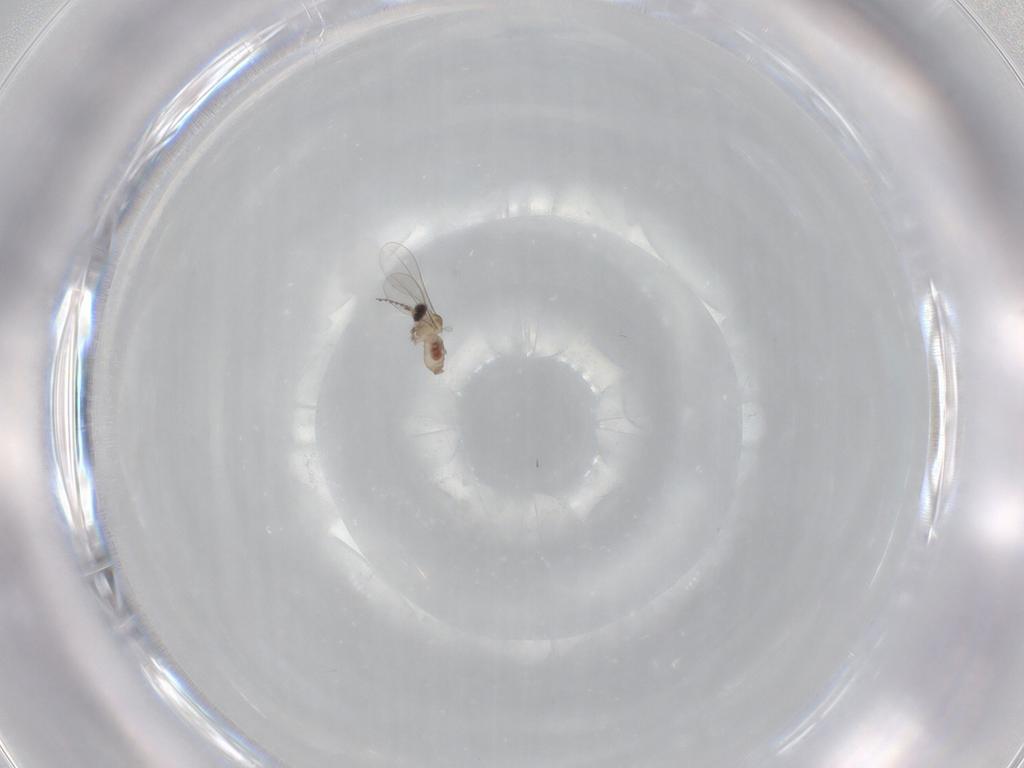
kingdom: Animalia
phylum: Arthropoda
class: Insecta
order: Diptera
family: Cecidomyiidae
